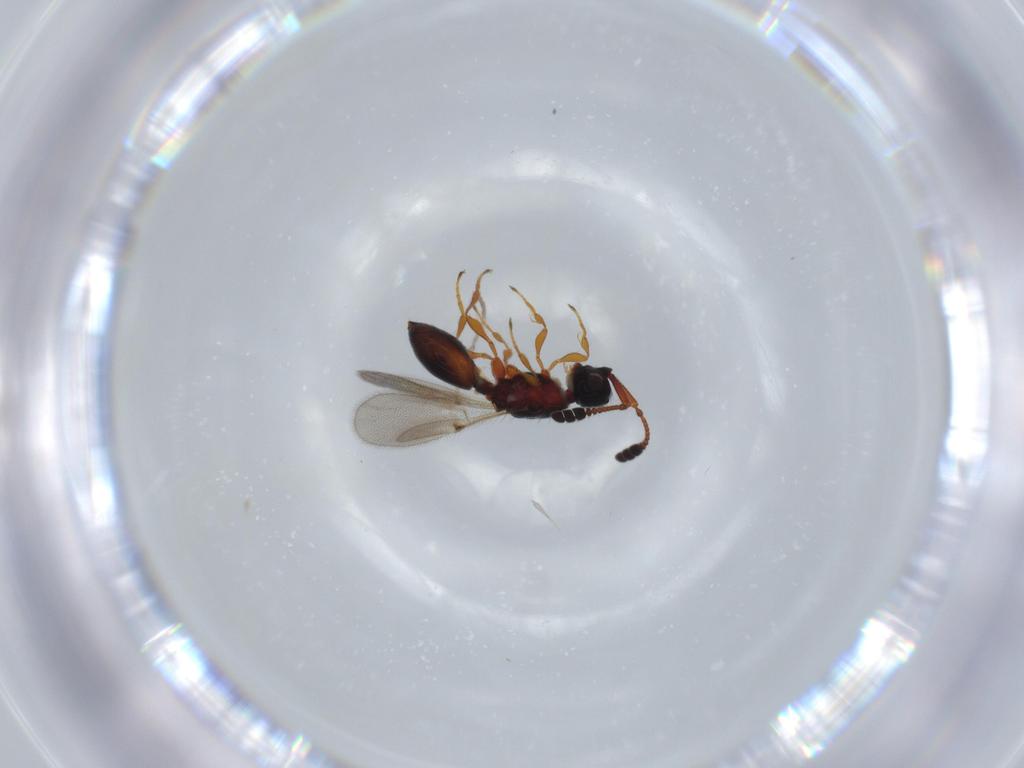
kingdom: Animalia
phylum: Arthropoda
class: Insecta
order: Hymenoptera
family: Diapriidae
